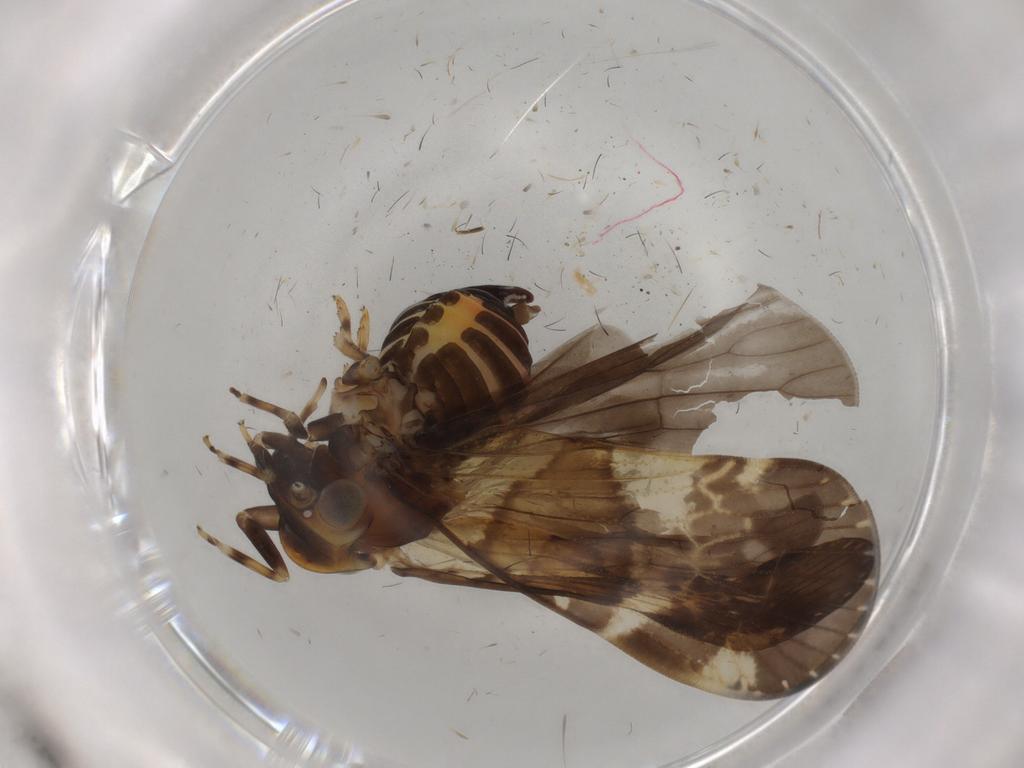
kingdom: Animalia
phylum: Arthropoda
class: Insecta
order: Hemiptera
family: Cixiidae
